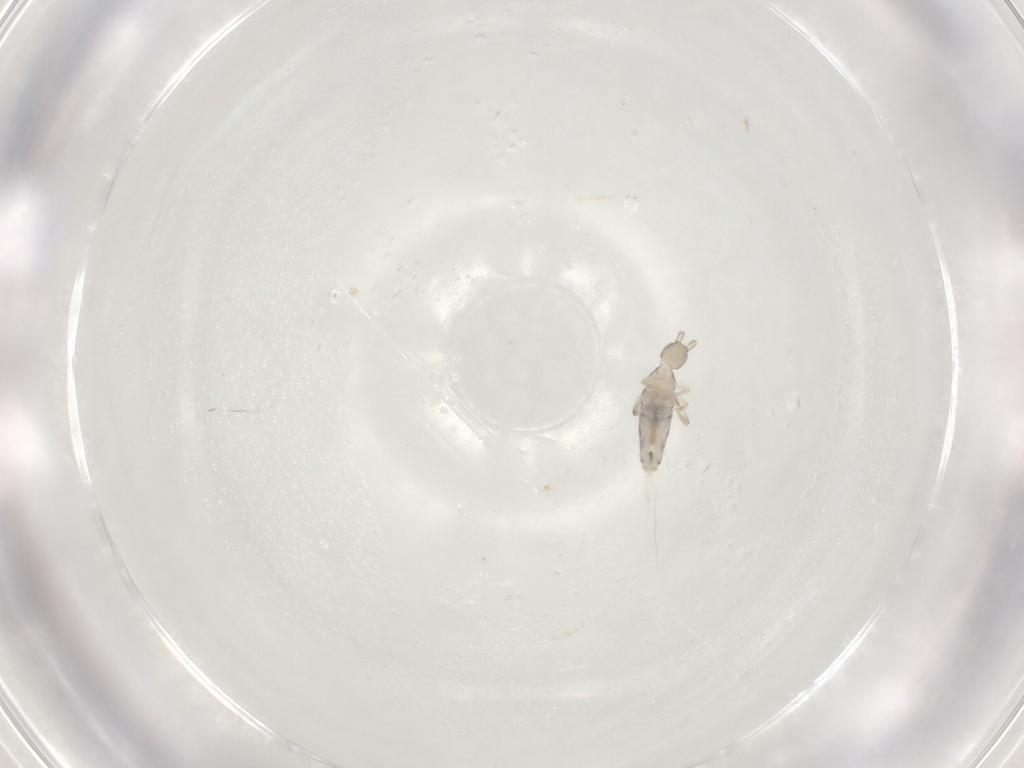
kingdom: Animalia
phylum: Arthropoda
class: Collembola
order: Entomobryomorpha
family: Entomobryidae
